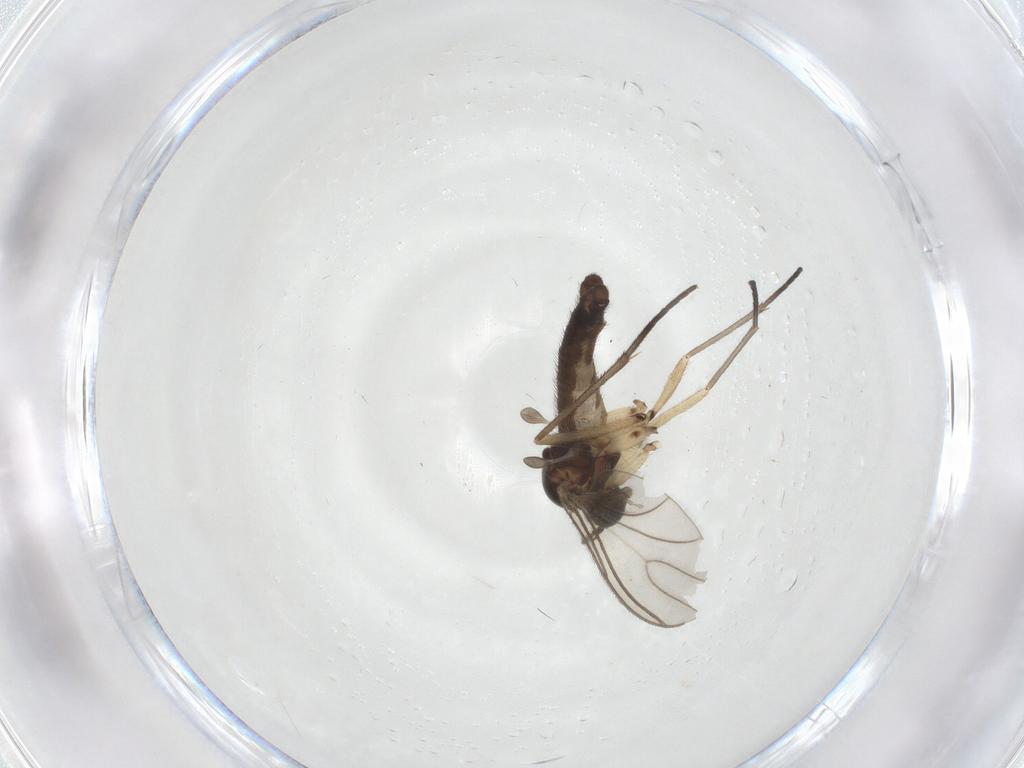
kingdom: Animalia
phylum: Arthropoda
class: Insecta
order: Diptera
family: Sciaridae
